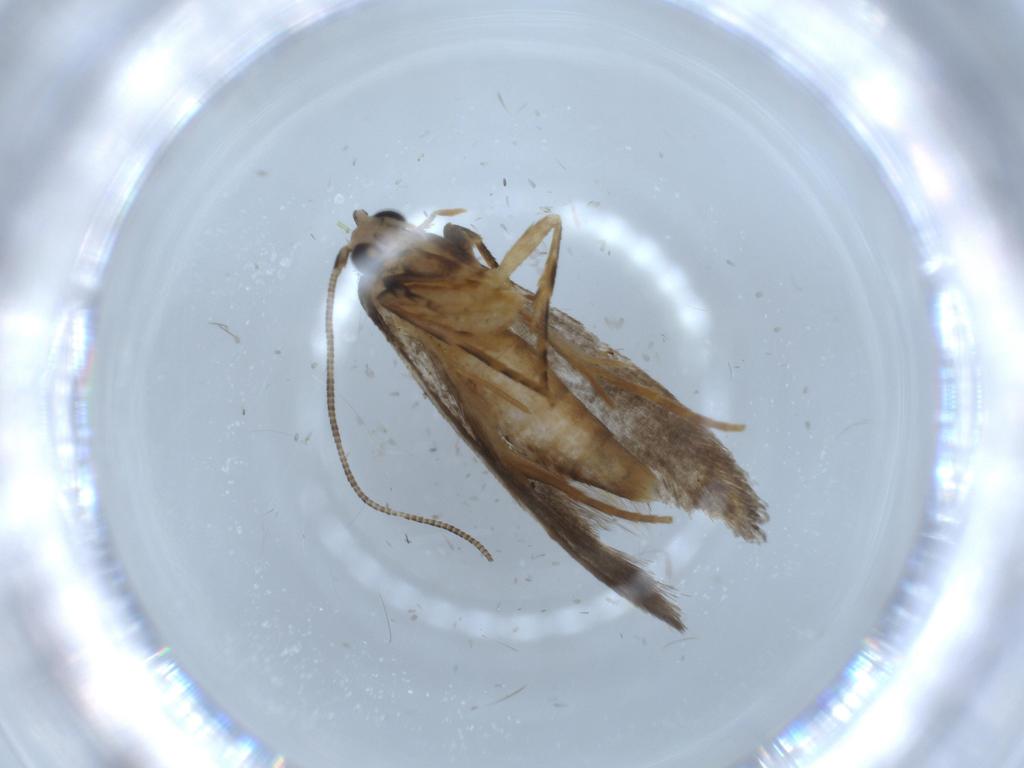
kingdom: Animalia
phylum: Arthropoda
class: Insecta
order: Lepidoptera
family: Tineidae
